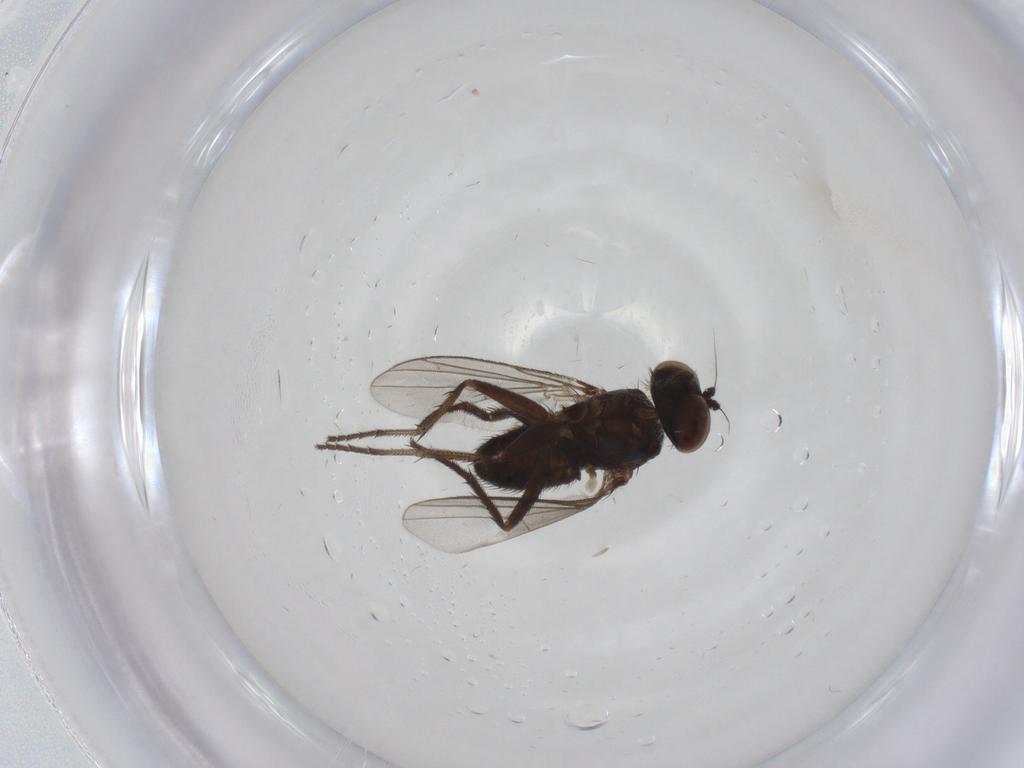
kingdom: Animalia
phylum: Arthropoda
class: Insecta
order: Diptera
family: Dolichopodidae
